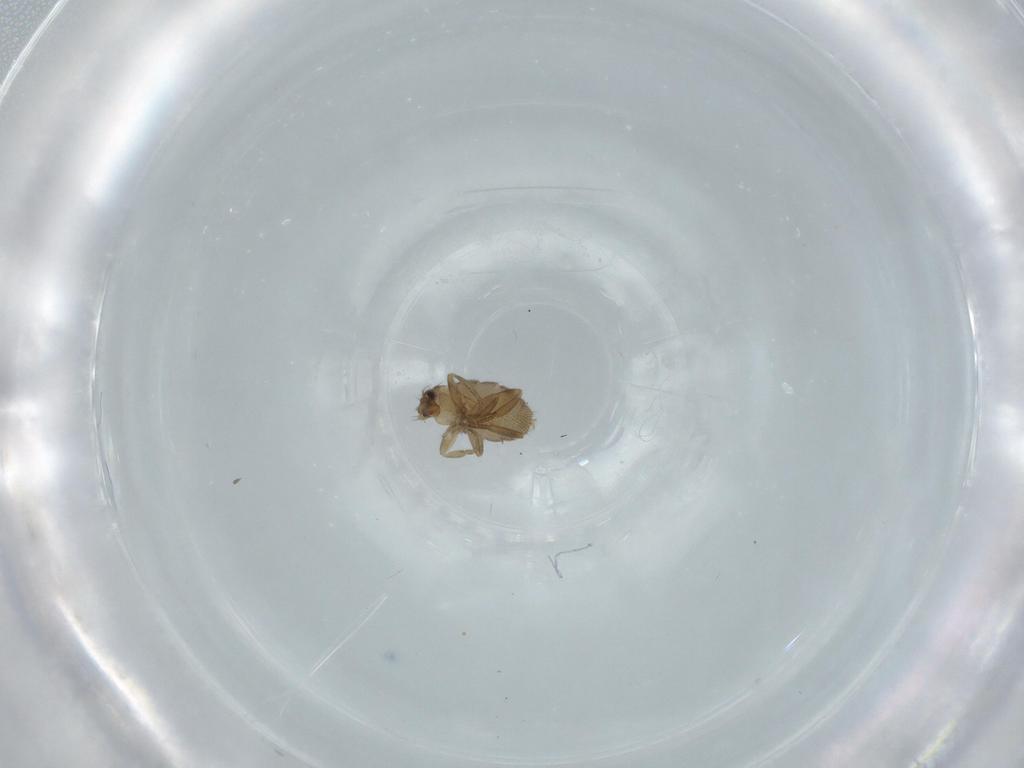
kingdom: Animalia
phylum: Arthropoda
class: Insecta
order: Diptera
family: Phoridae
